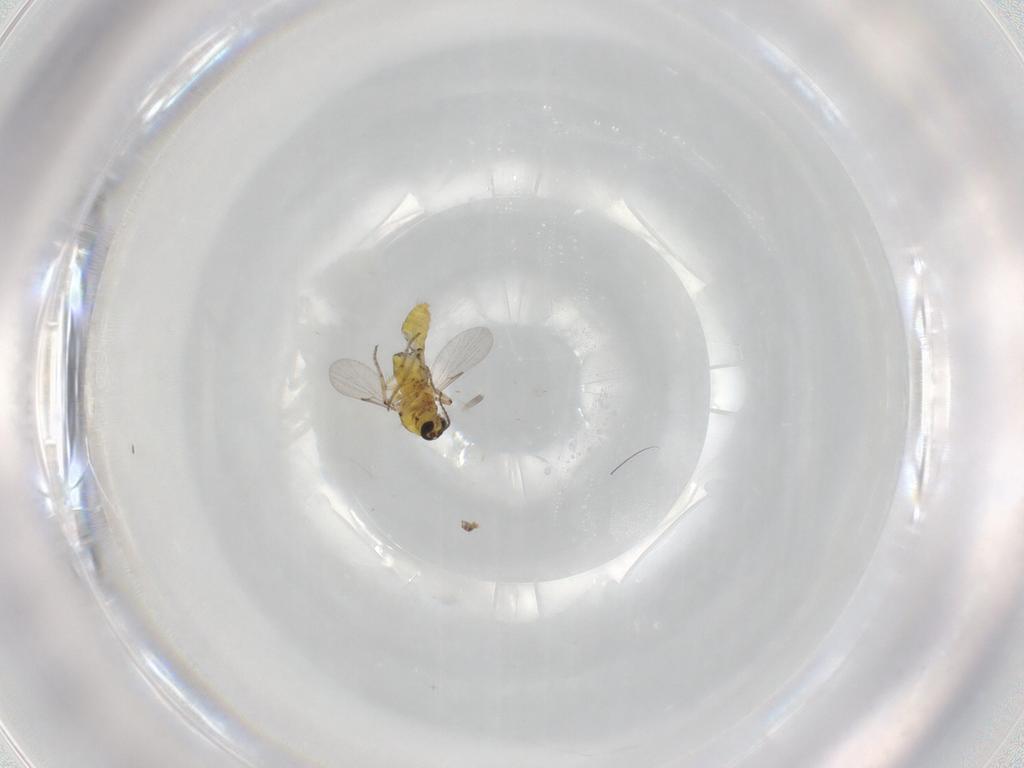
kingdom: Animalia
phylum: Arthropoda
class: Insecta
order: Diptera
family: Ceratopogonidae
